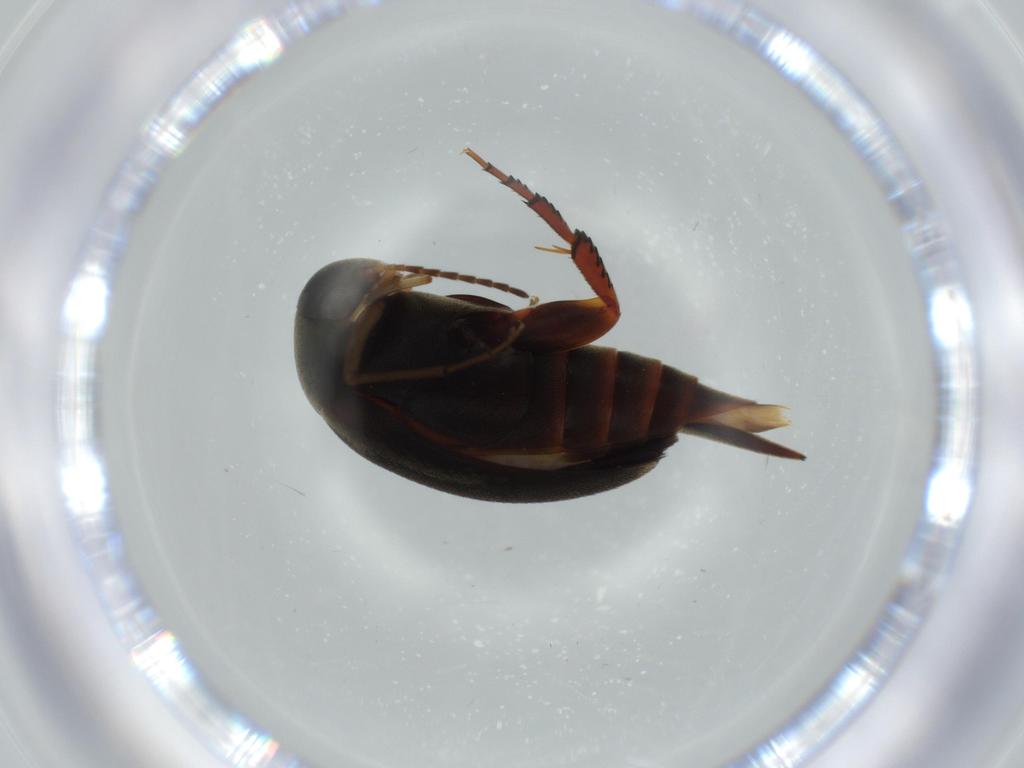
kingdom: Animalia
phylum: Arthropoda
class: Insecta
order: Coleoptera
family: Mordellidae
